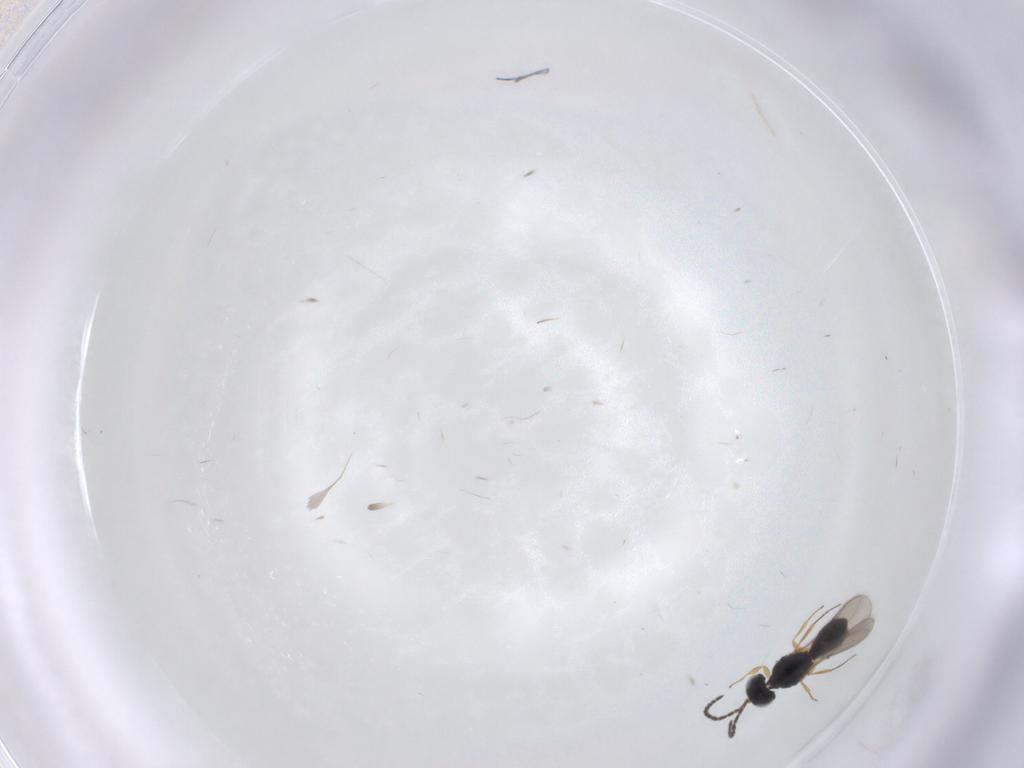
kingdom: Animalia
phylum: Arthropoda
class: Insecta
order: Hymenoptera
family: Scelionidae
